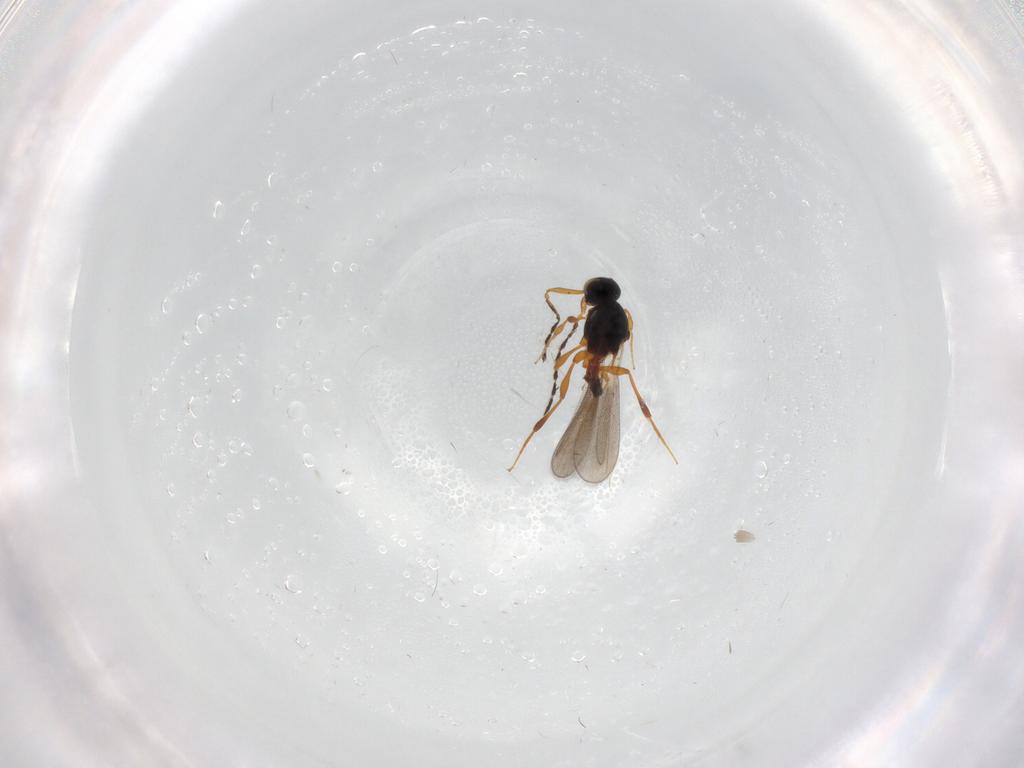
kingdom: Animalia
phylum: Arthropoda
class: Insecta
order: Hymenoptera
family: Platygastridae
